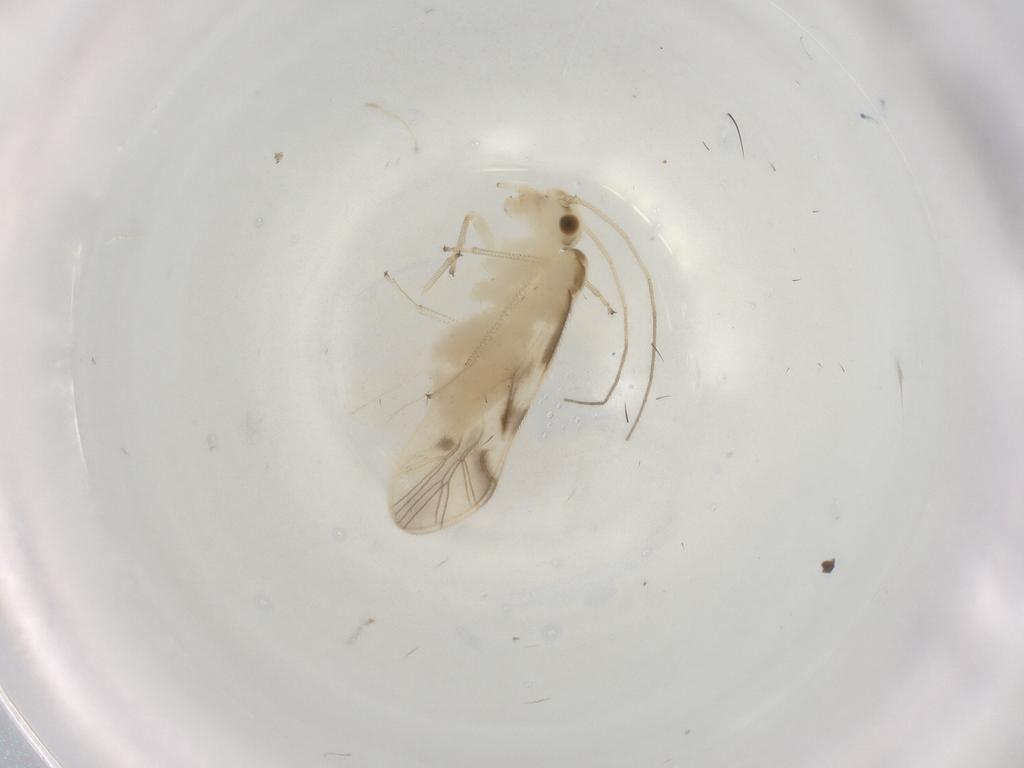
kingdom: Animalia
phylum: Arthropoda
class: Insecta
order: Psocodea
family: Caeciliusidae
